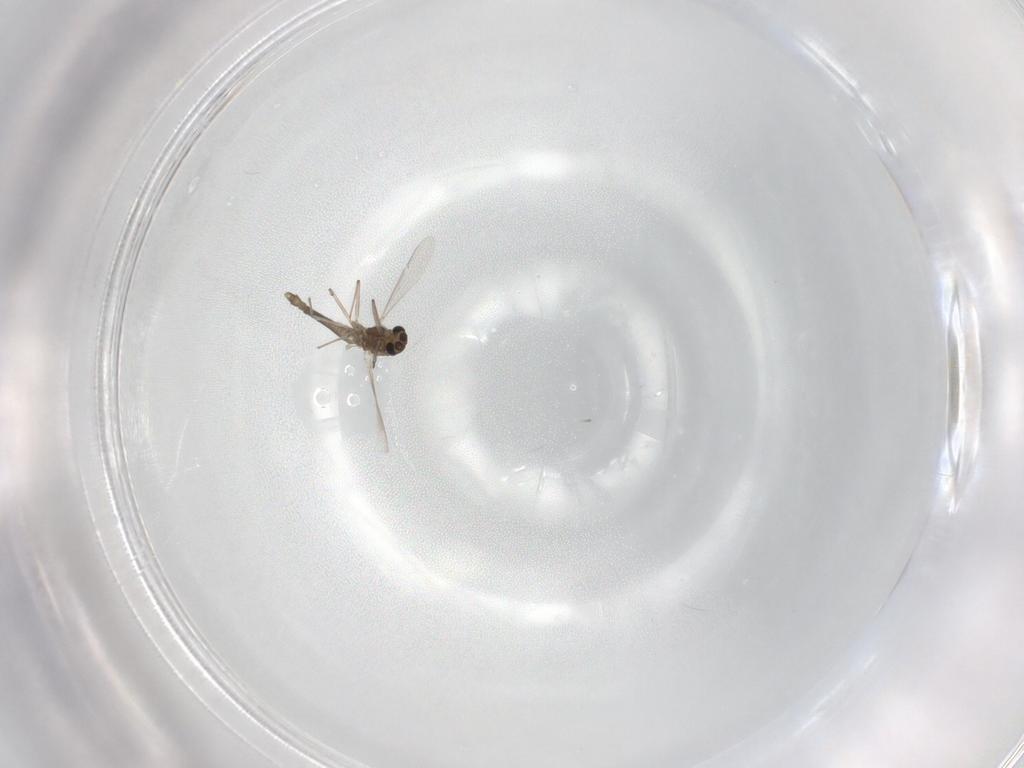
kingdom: Animalia
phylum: Arthropoda
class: Insecta
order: Diptera
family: Chironomidae
